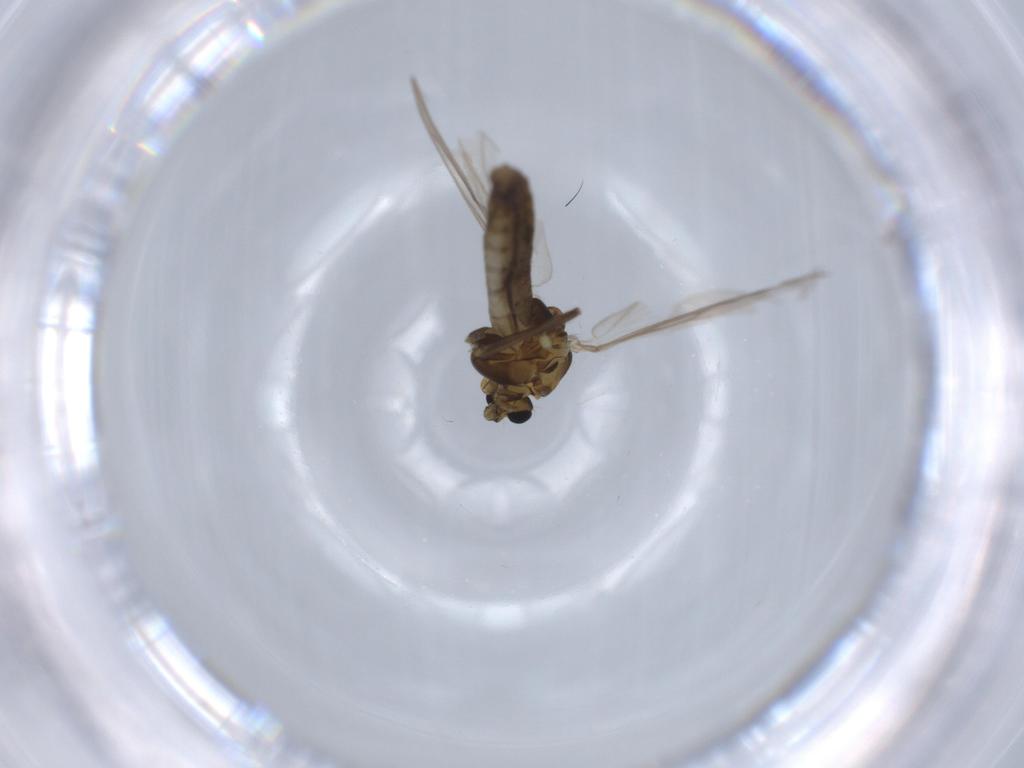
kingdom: Animalia
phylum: Arthropoda
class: Insecta
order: Diptera
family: Chironomidae
